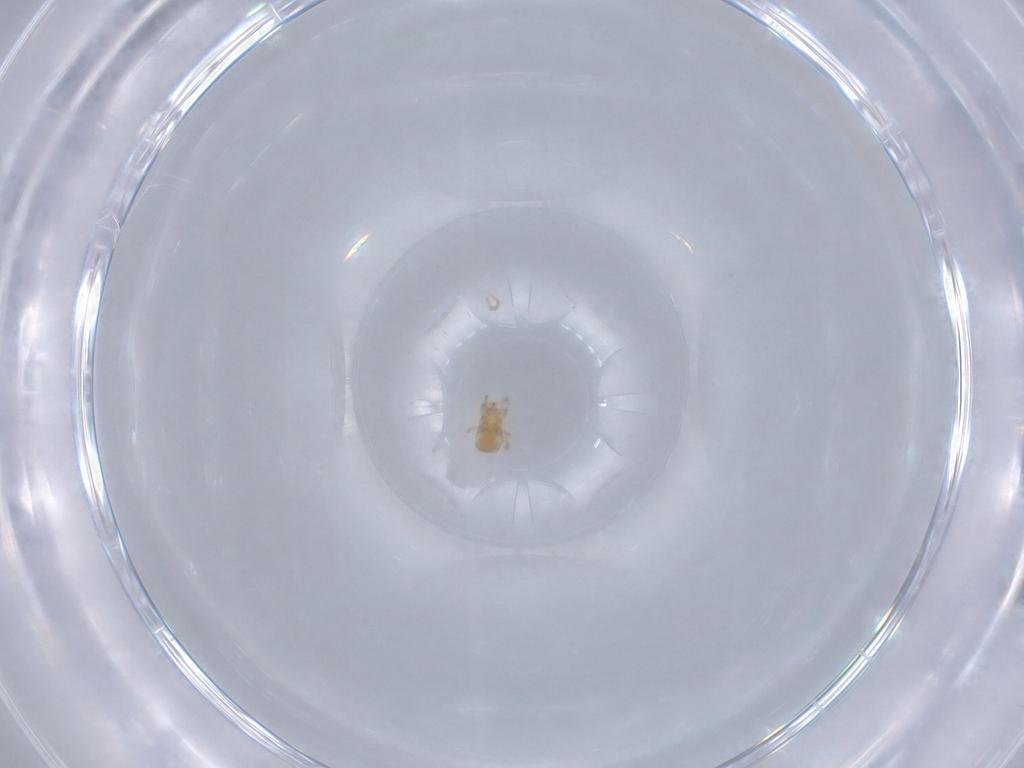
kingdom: Animalia
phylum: Arthropoda
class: Arachnida
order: Mesostigmata
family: Blattisociidae
